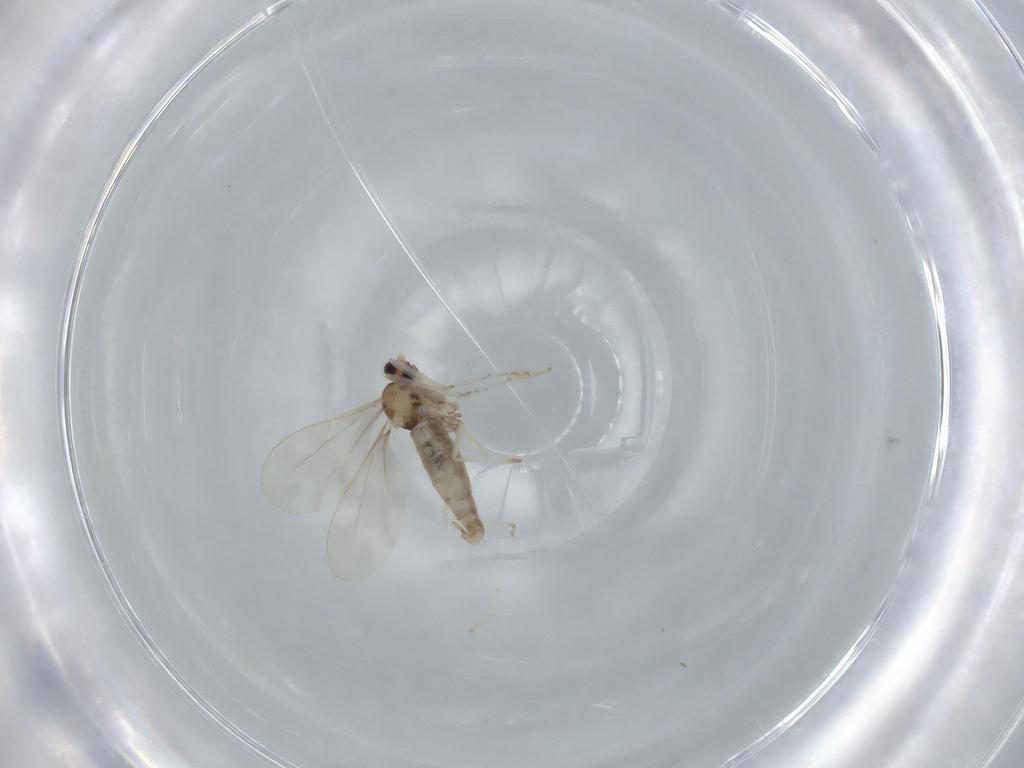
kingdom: Animalia
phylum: Arthropoda
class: Insecta
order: Diptera
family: Cecidomyiidae
